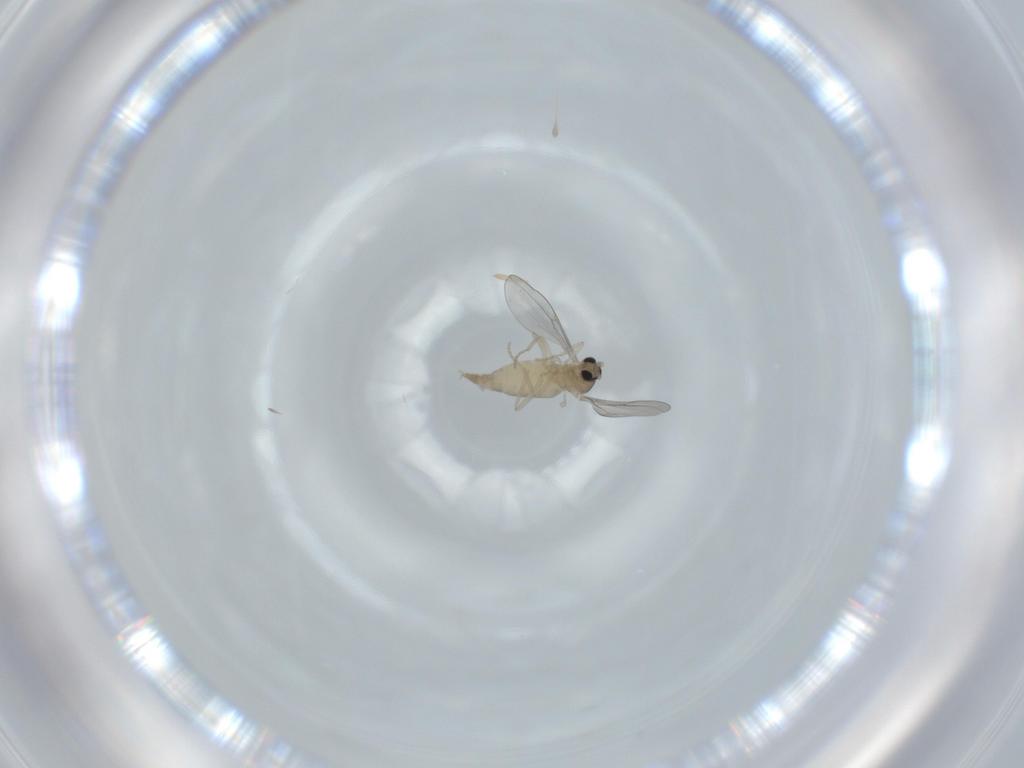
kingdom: Animalia
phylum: Arthropoda
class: Insecta
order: Diptera
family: Cecidomyiidae
